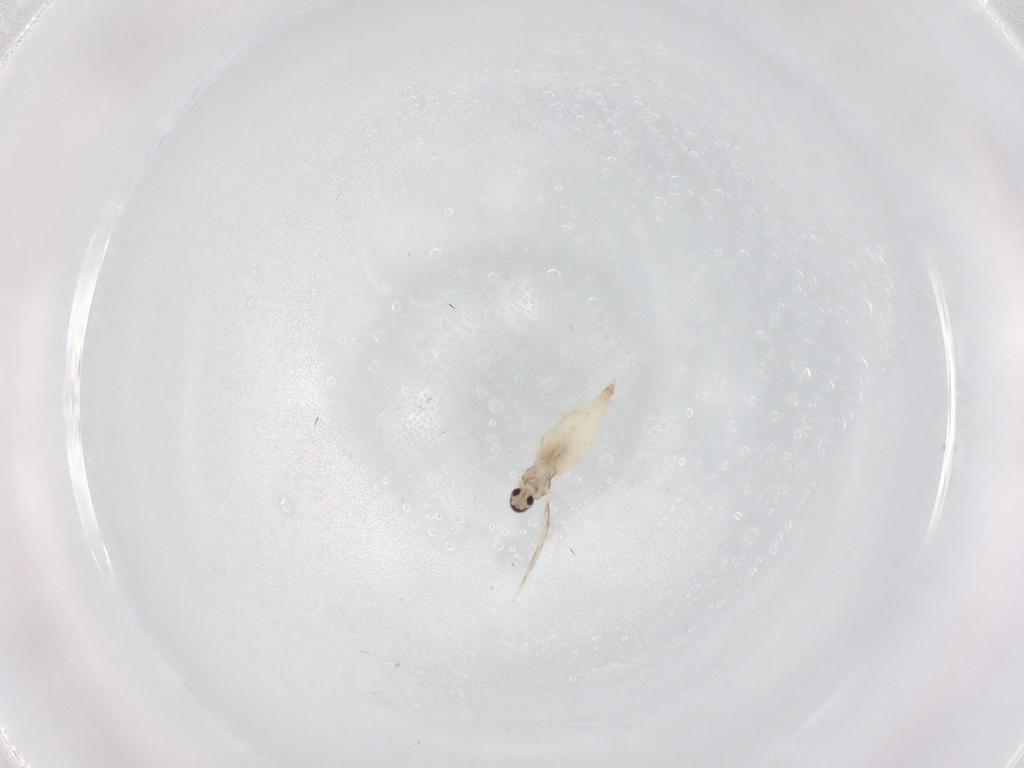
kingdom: Animalia
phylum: Arthropoda
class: Insecta
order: Diptera
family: Cecidomyiidae
